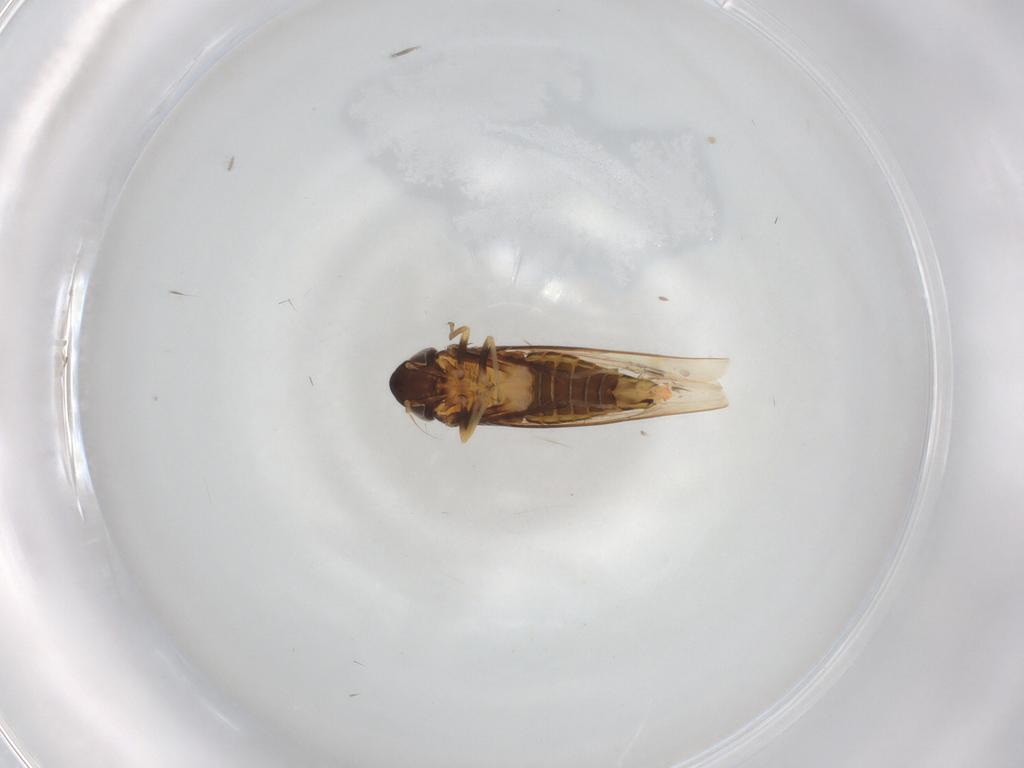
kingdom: Animalia
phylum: Arthropoda
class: Insecta
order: Hemiptera
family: Cicadellidae
